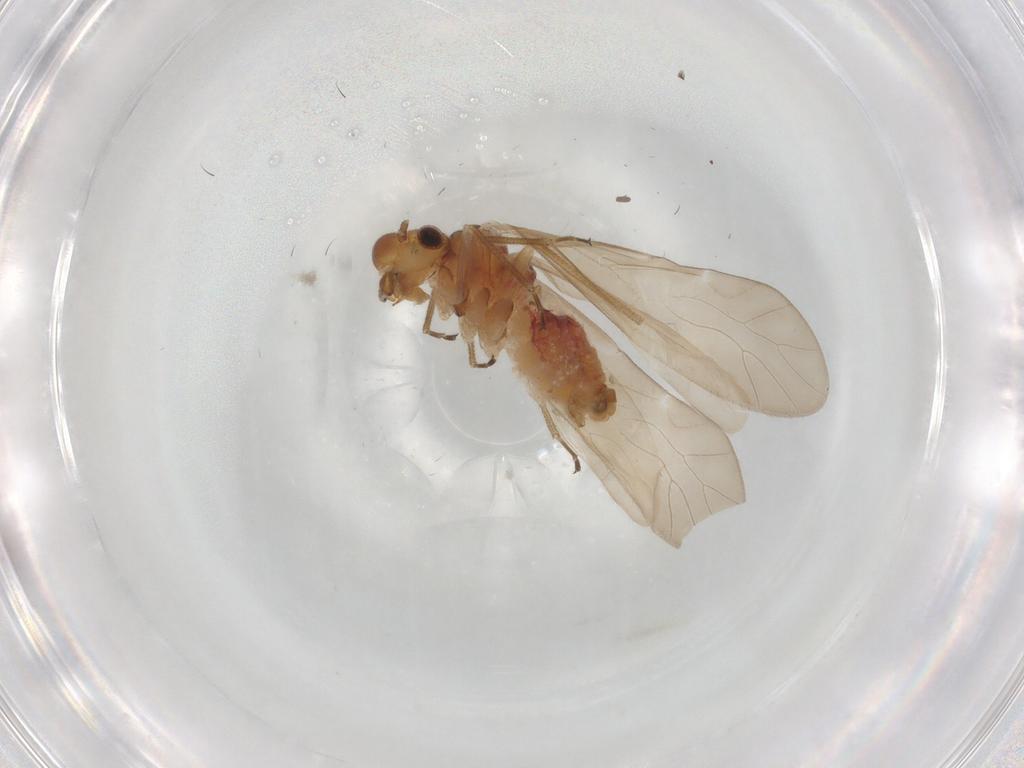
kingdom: Animalia
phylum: Arthropoda
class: Insecta
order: Psocodea
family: Caeciliusidae
